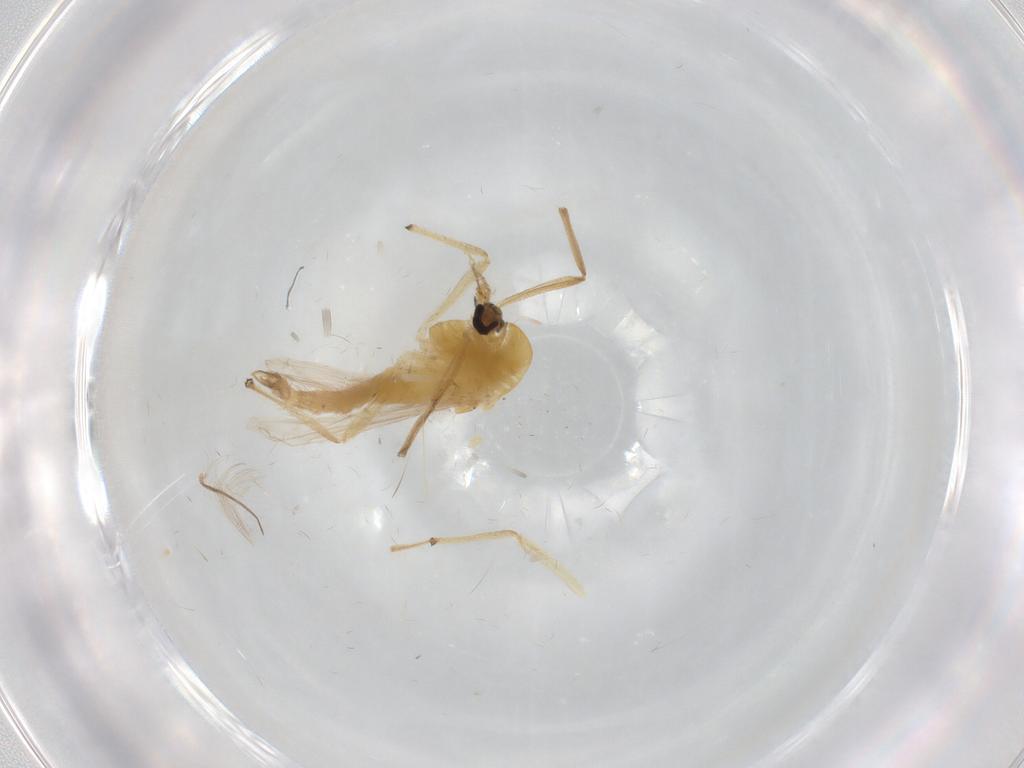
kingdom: Animalia
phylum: Arthropoda
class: Insecta
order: Diptera
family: Chironomidae
